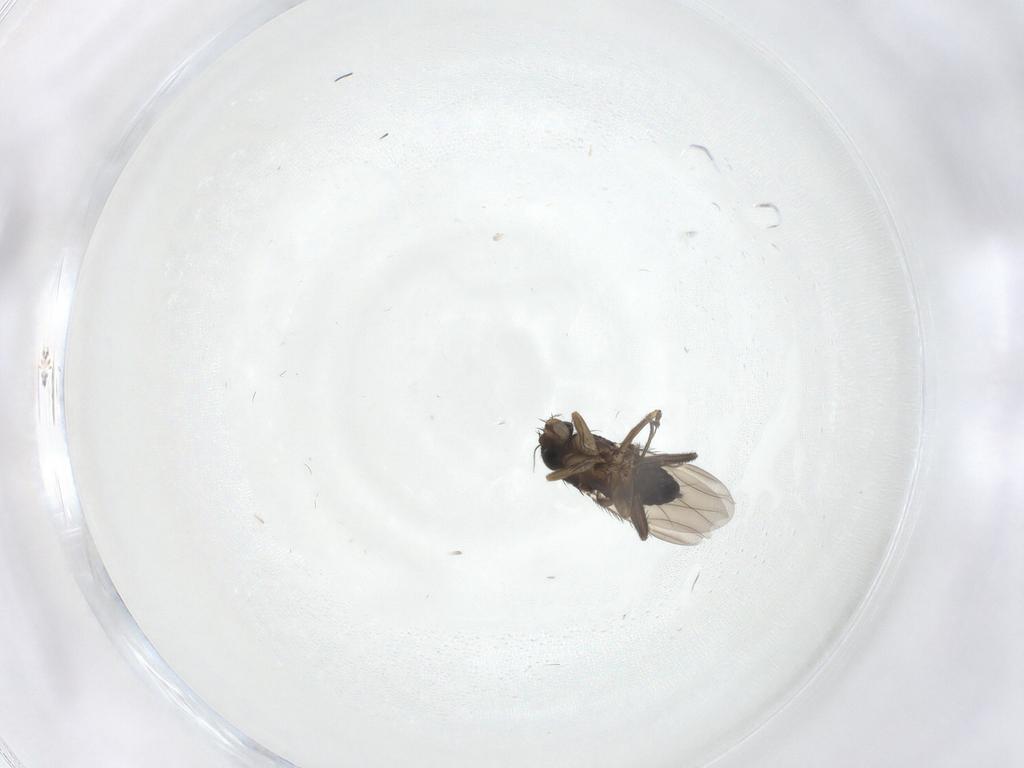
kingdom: Animalia
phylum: Arthropoda
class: Insecta
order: Diptera
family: Phoridae
